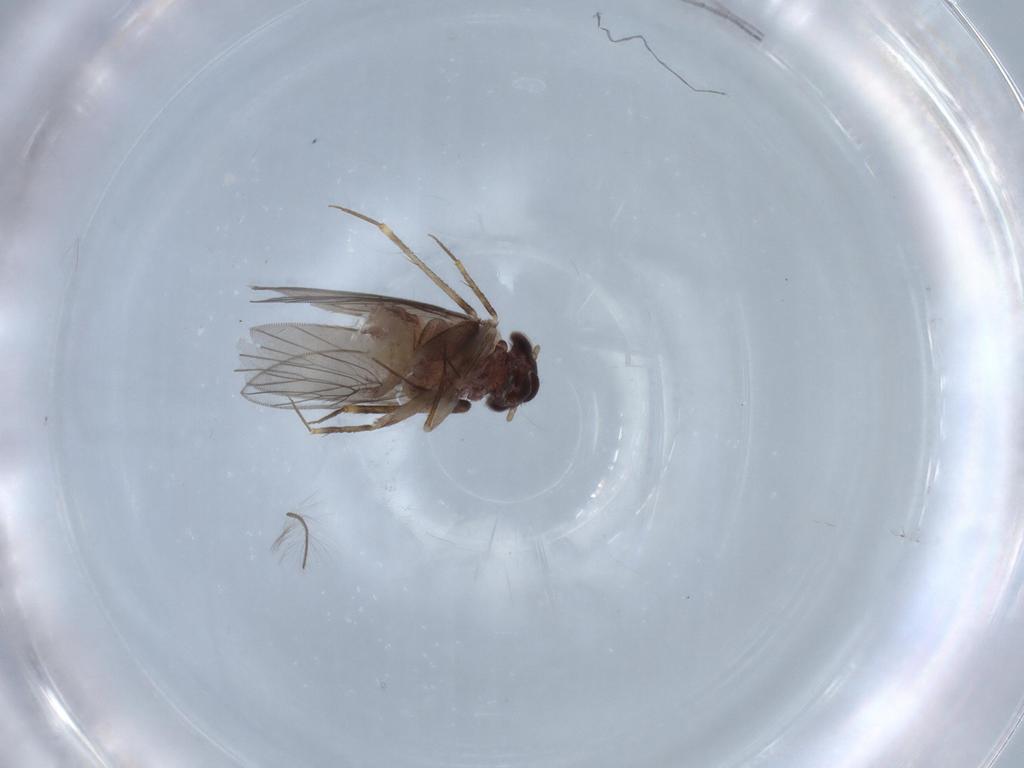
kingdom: Animalia
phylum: Arthropoda
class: Insecta
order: Psocodea
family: Lepidopsocidae
